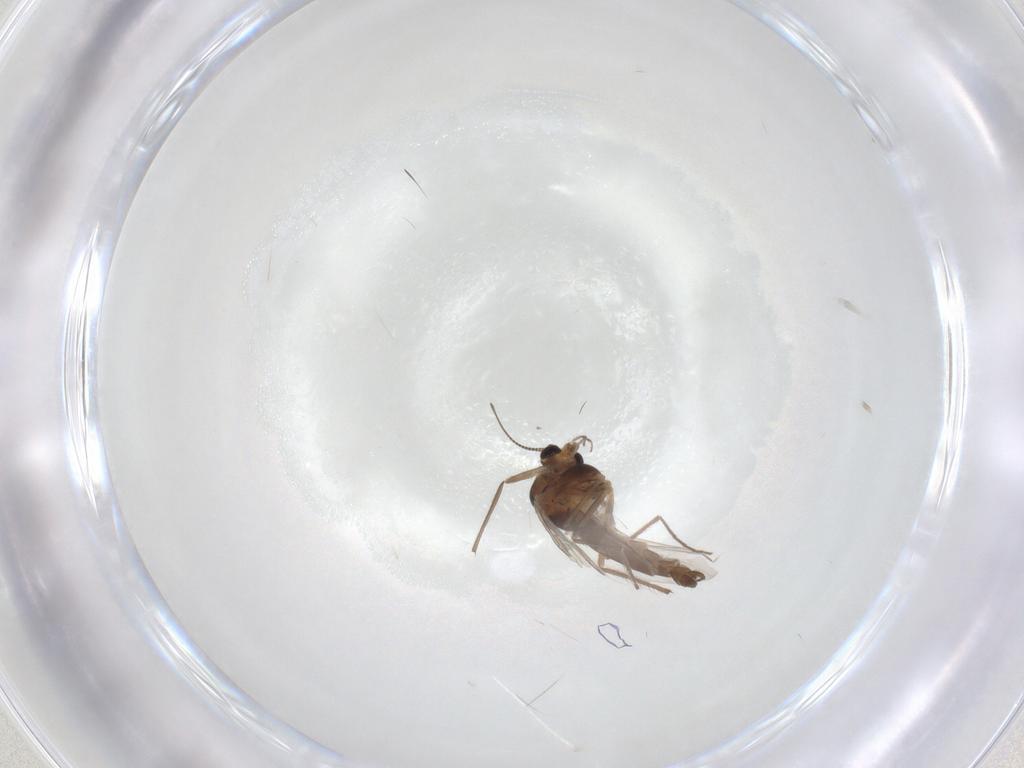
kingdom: Animalia
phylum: Arthropoda
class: Insecta
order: Diptera
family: Chironomidae
